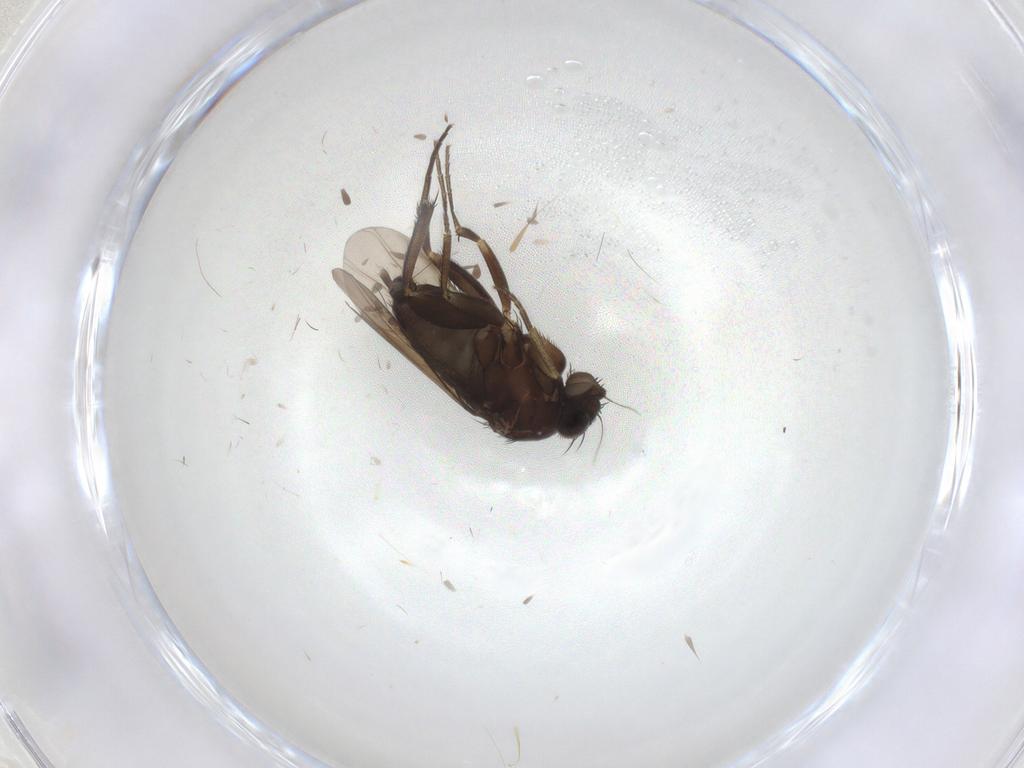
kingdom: Animalia
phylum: Arthropoda
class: Insecta
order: Diptera
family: Phoridae
